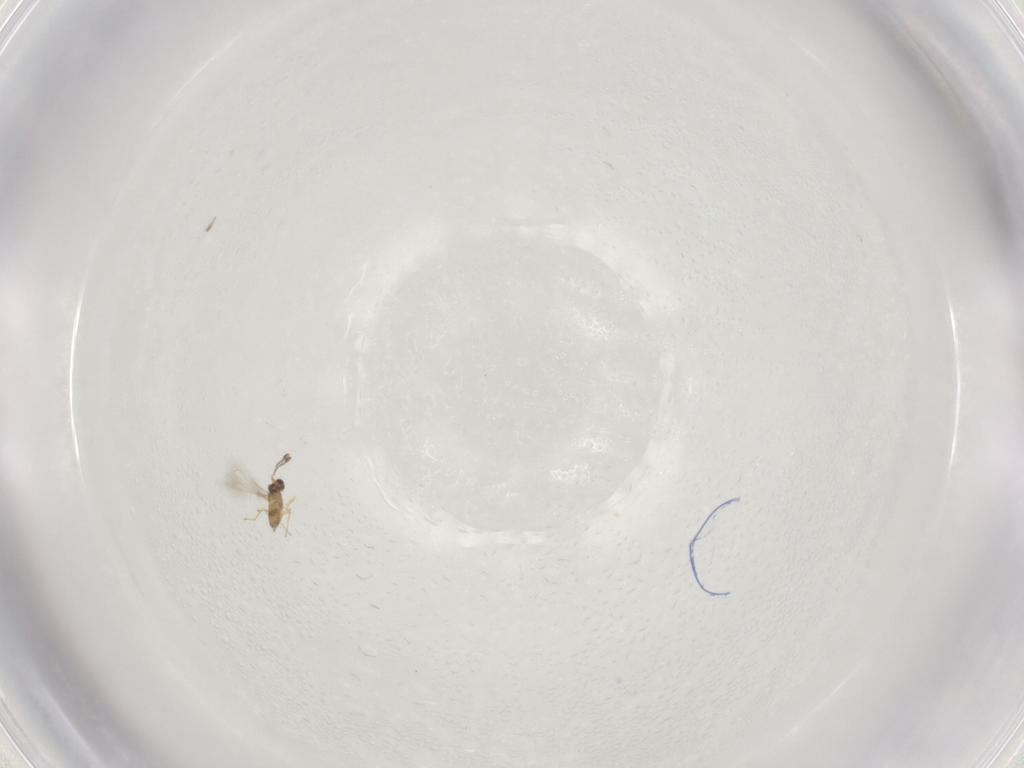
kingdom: Animalia
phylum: Arthropoda
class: Insecta
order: Hymenoptera
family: Mymaridae
